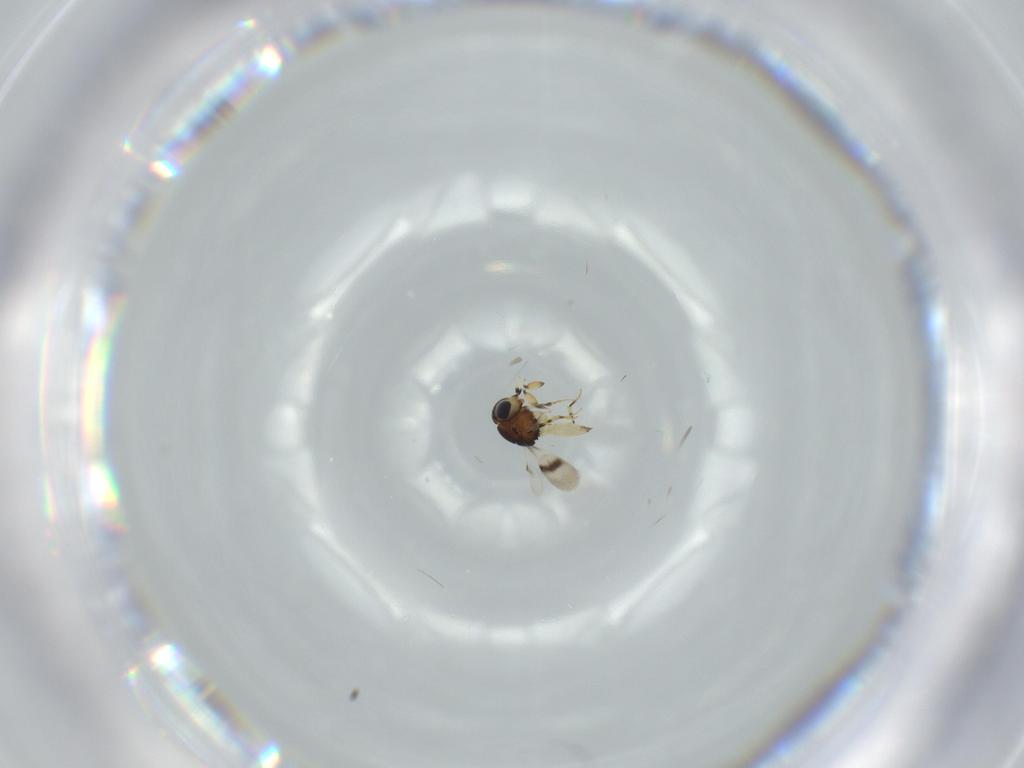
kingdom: Animalia
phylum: Arthropoda
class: Insecta
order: Hymenoptera
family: Scelionidae
